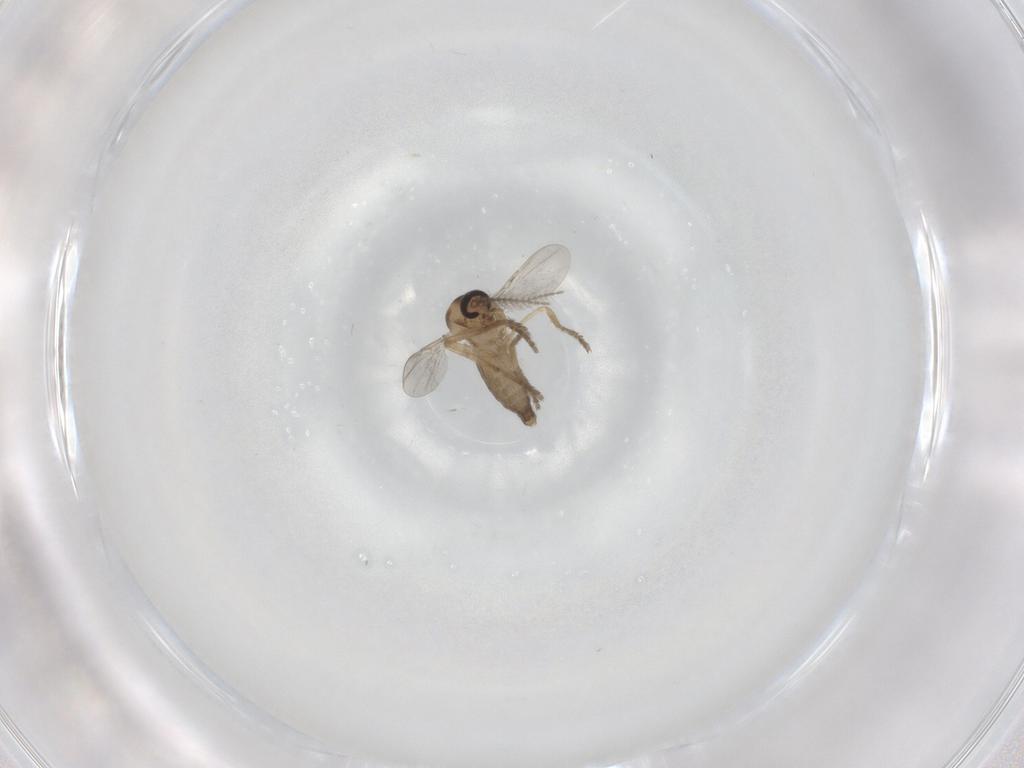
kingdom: Animalia
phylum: Arthropoda
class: Insecta
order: Diptera
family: Ceratopogonidae
